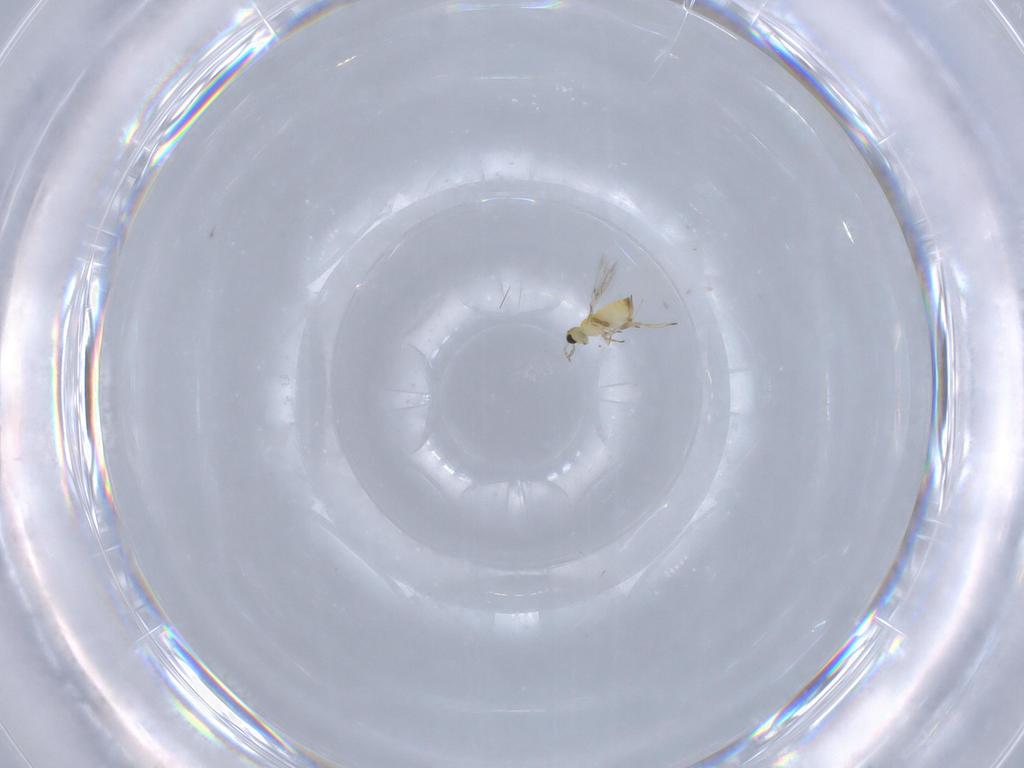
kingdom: Animalia
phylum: Arthropoda
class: Insecta
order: Hymenoptera
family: Mymaridae
